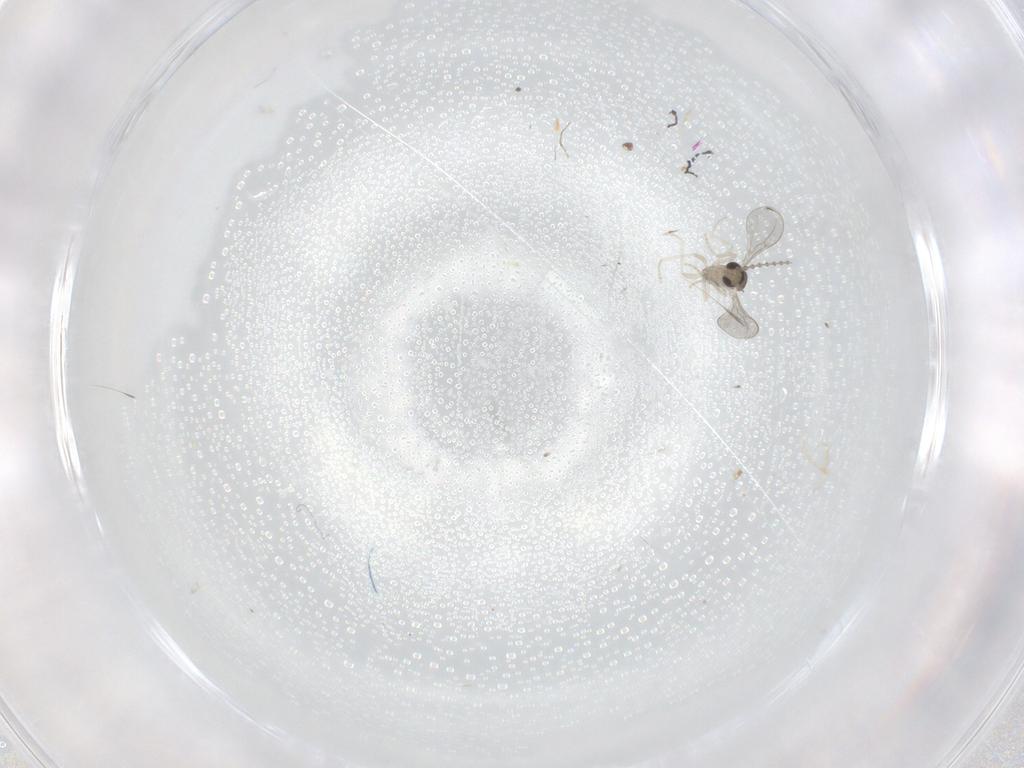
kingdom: Animalia
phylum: Arthropoda
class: Insecta
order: Diptera
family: Cecidomyiidae
